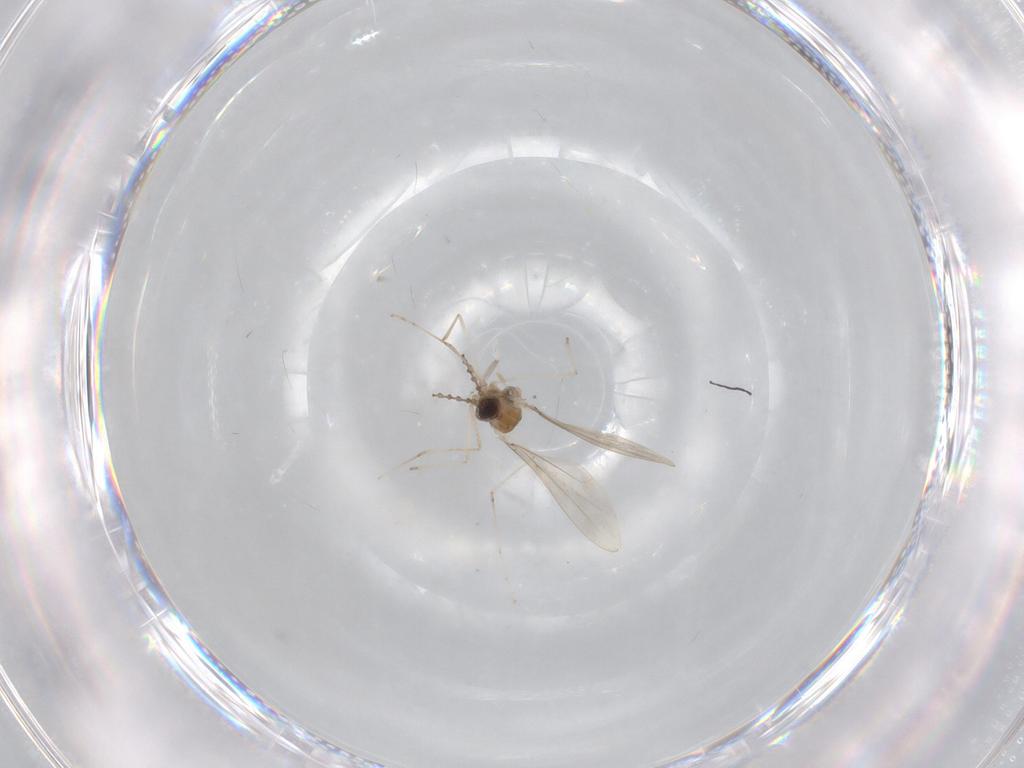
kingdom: Animalia
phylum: Arthropoda
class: Insecta
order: Diptera
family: Cecidomyiidae
